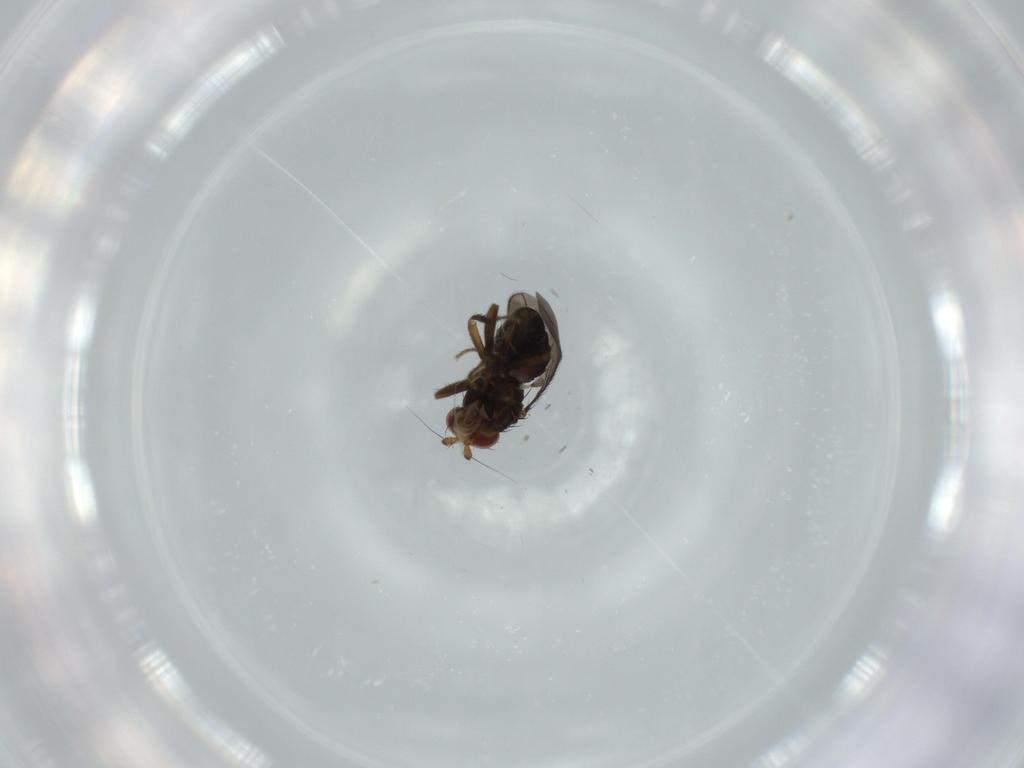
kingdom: Animalia
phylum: Arthropoda
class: Insecta
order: Diptera
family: Sphaeroceridae
